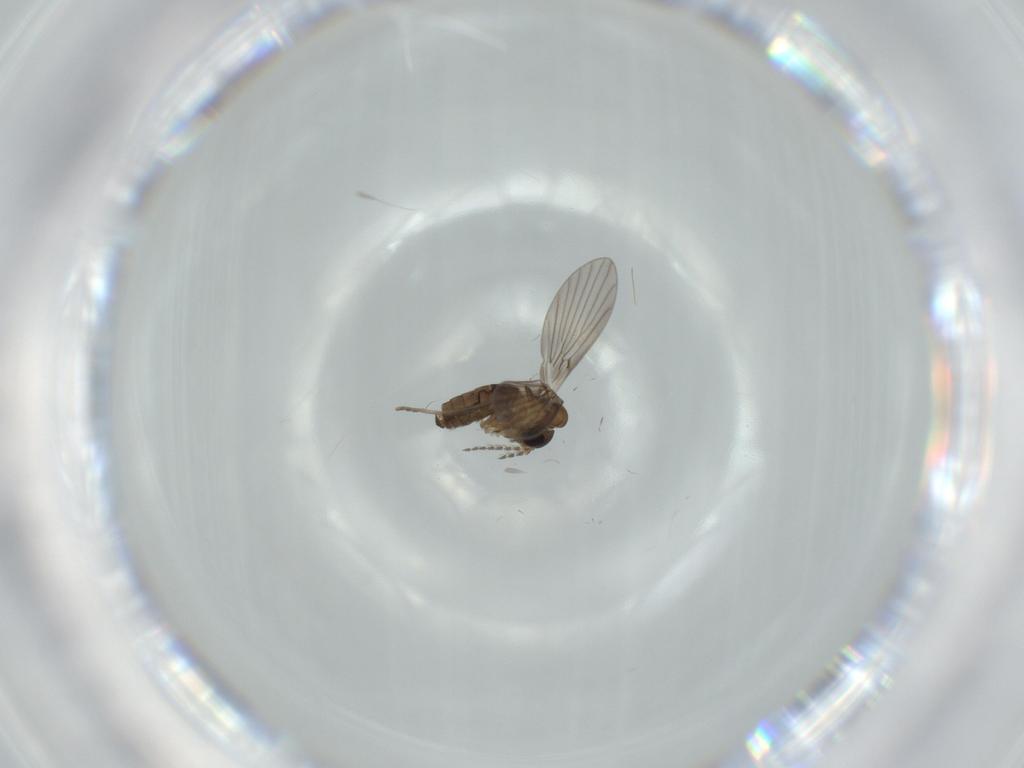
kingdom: Animalia
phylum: Arthropoda
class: Insecta
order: Diptera
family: Psychodidae
